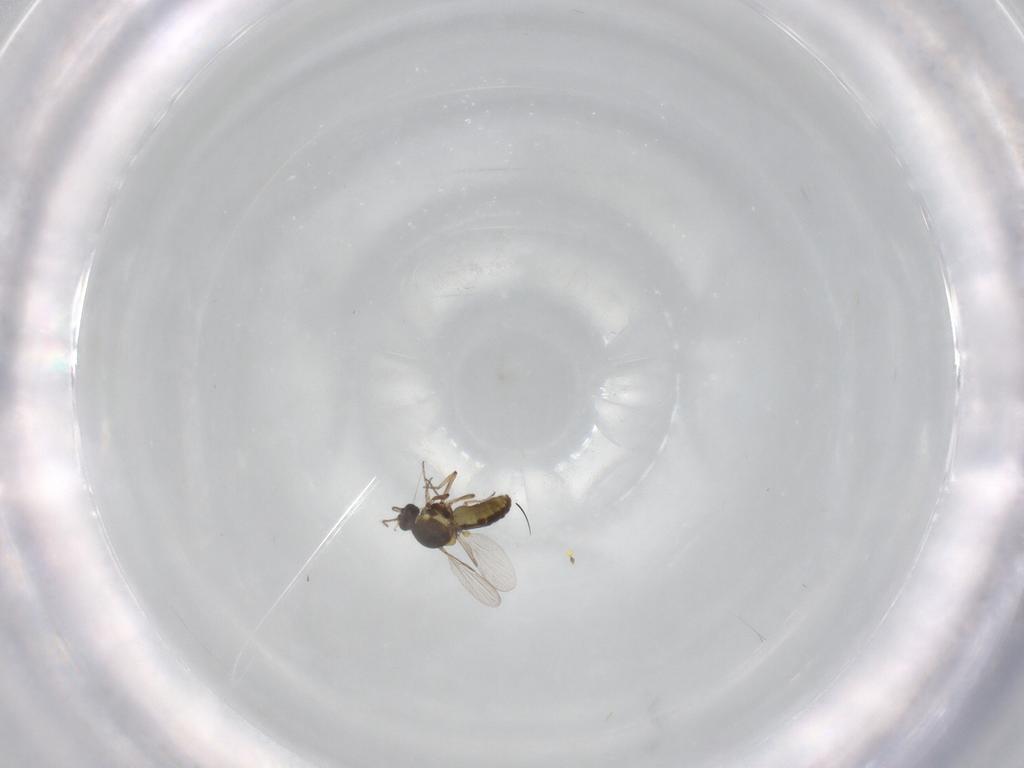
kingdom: Animalia
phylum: Arthropoda
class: Insecta
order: Diptera
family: Ceratopogonidae
